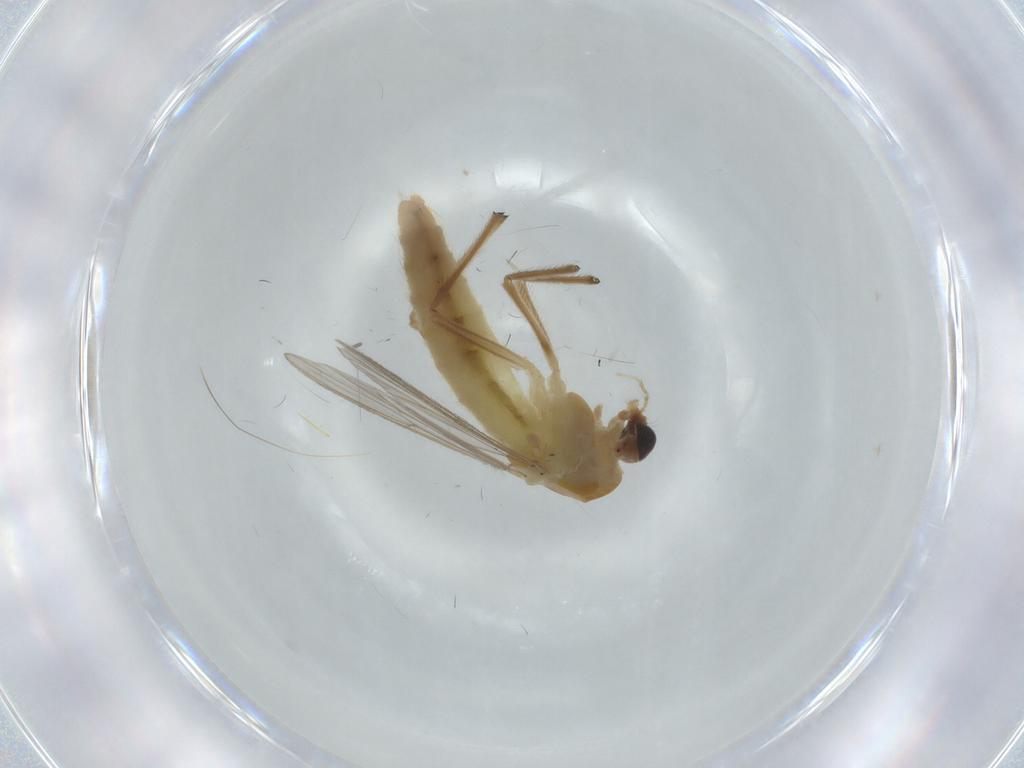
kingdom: Animalia
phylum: Arthropoda
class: Insecta
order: Diptera
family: Chironomidae
